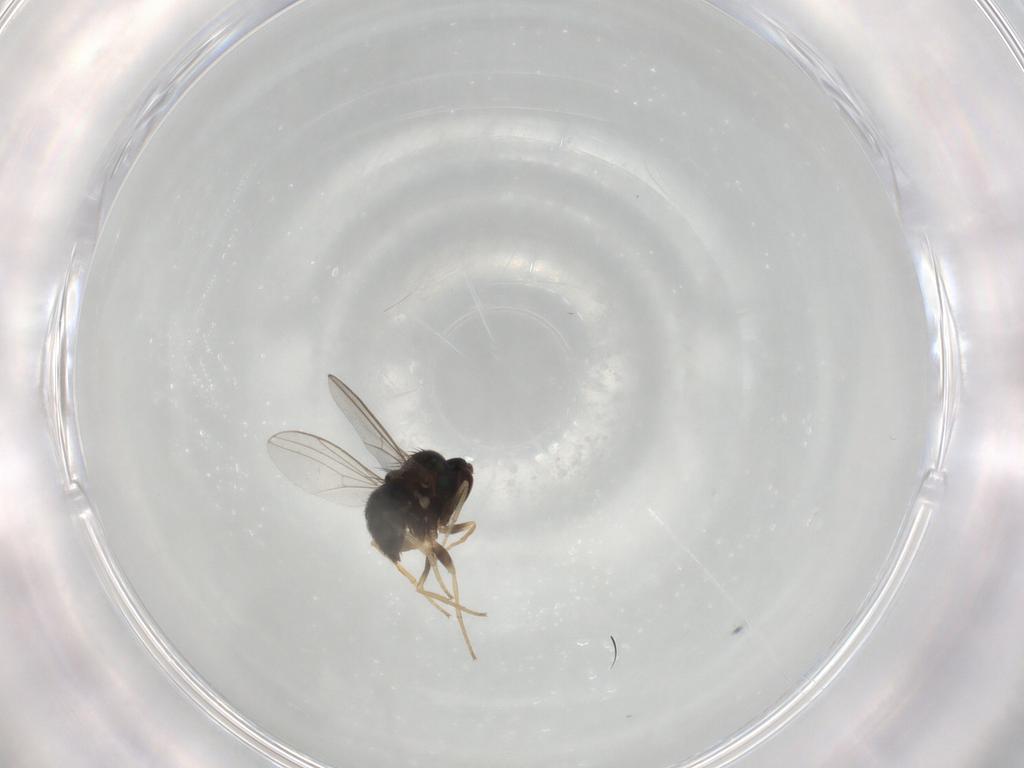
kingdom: Animalia
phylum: Arthropoda
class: Insecta
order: Diptera
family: Dolichopodidae
